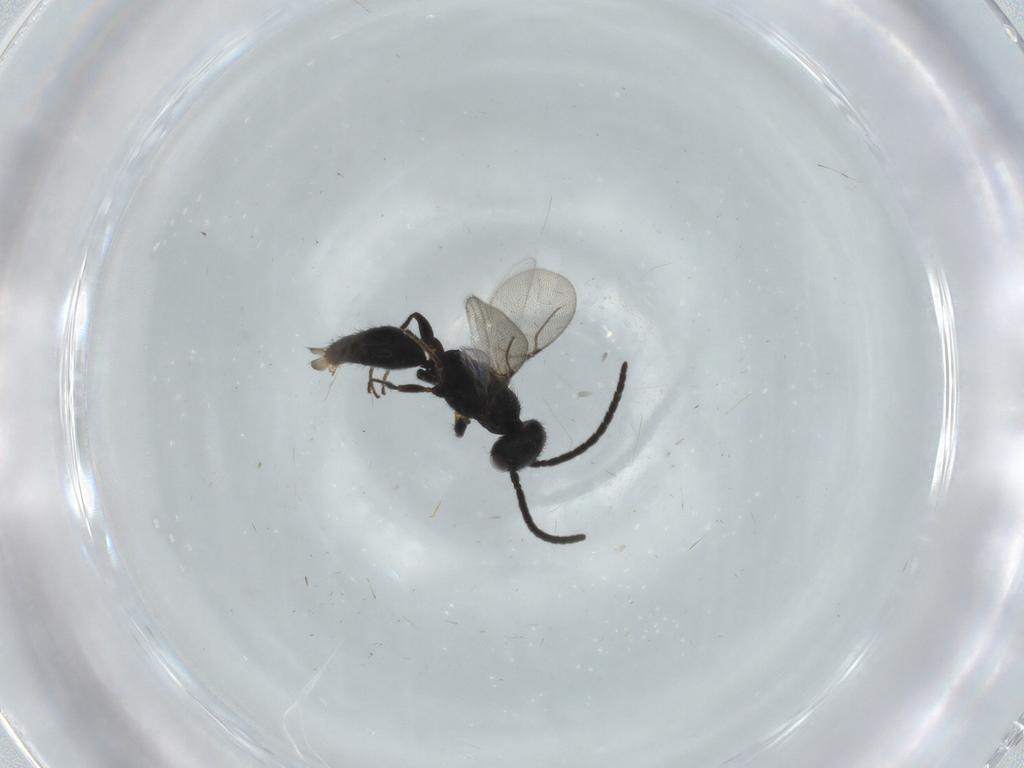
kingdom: Animalia
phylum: Arthropoda
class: Insecta
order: Hymenoptera
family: Bethylidae
